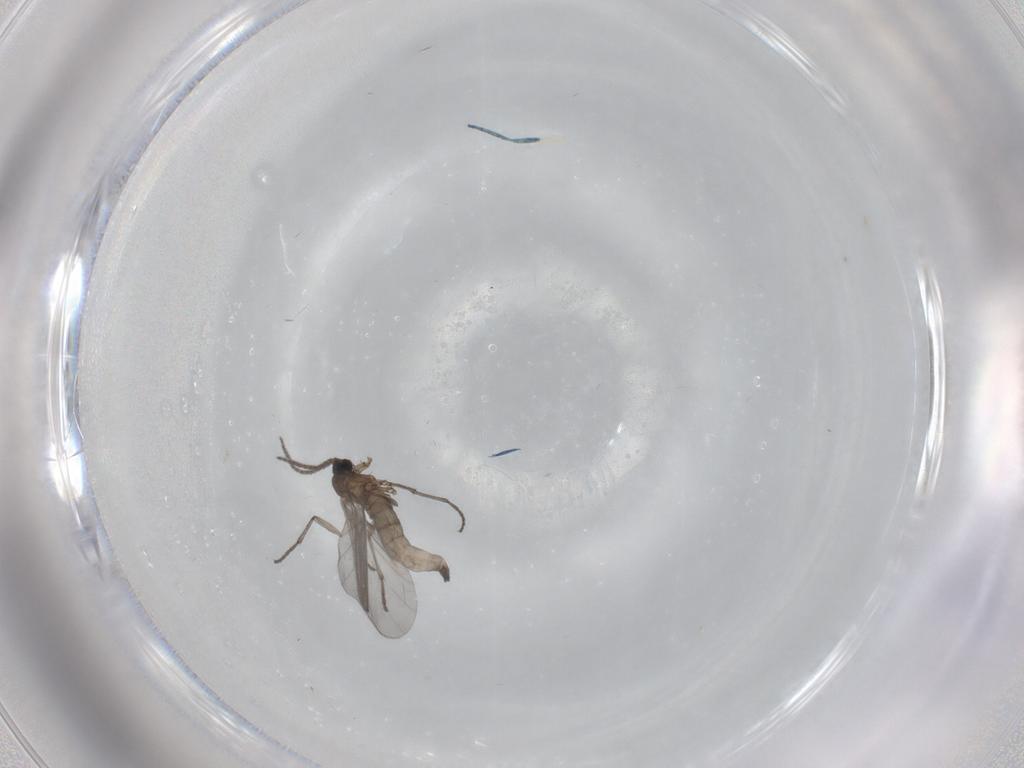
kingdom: Animalia
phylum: Arthropoda
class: Insecta
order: Diptera
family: Sciaridae
